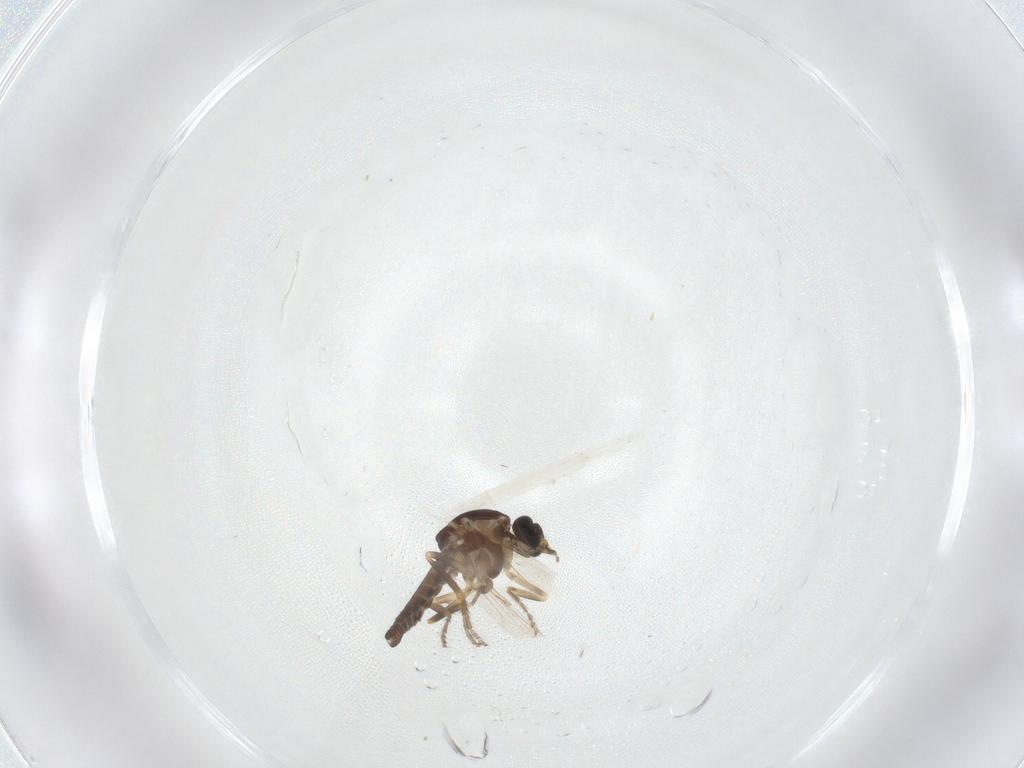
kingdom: Animalia
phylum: Arthropoda
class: Insecta
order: Diptera
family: Ceratopogonidae
